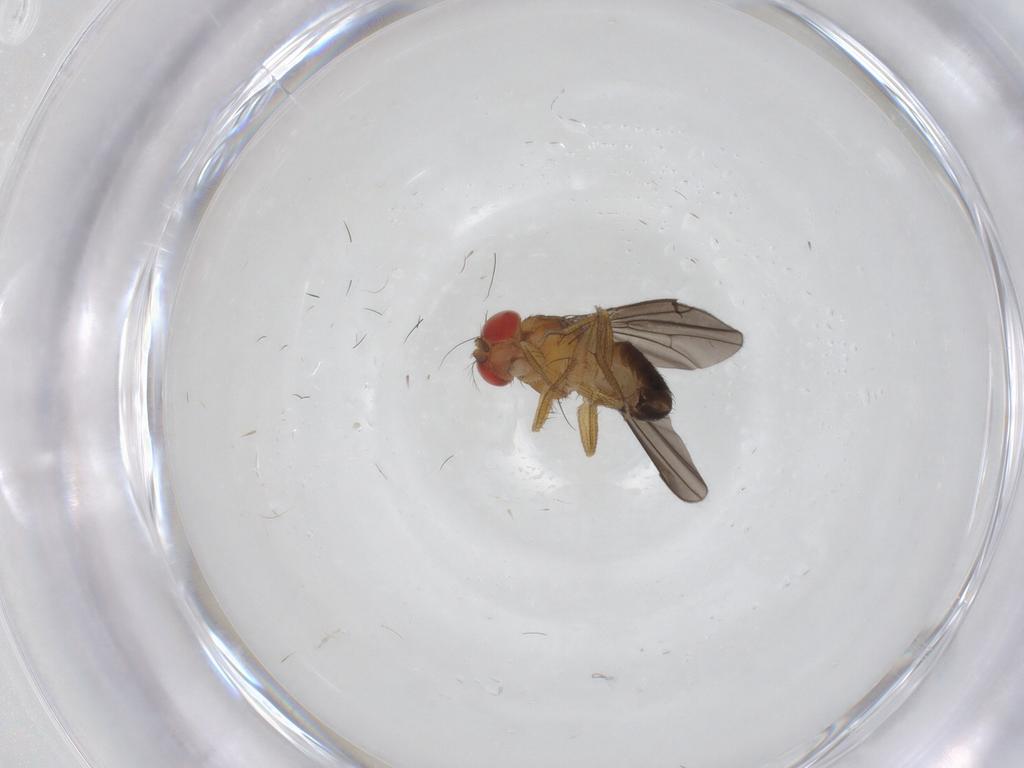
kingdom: Animalia
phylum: Arthropoda
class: Insecta
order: Diptera
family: Drosophilidae
